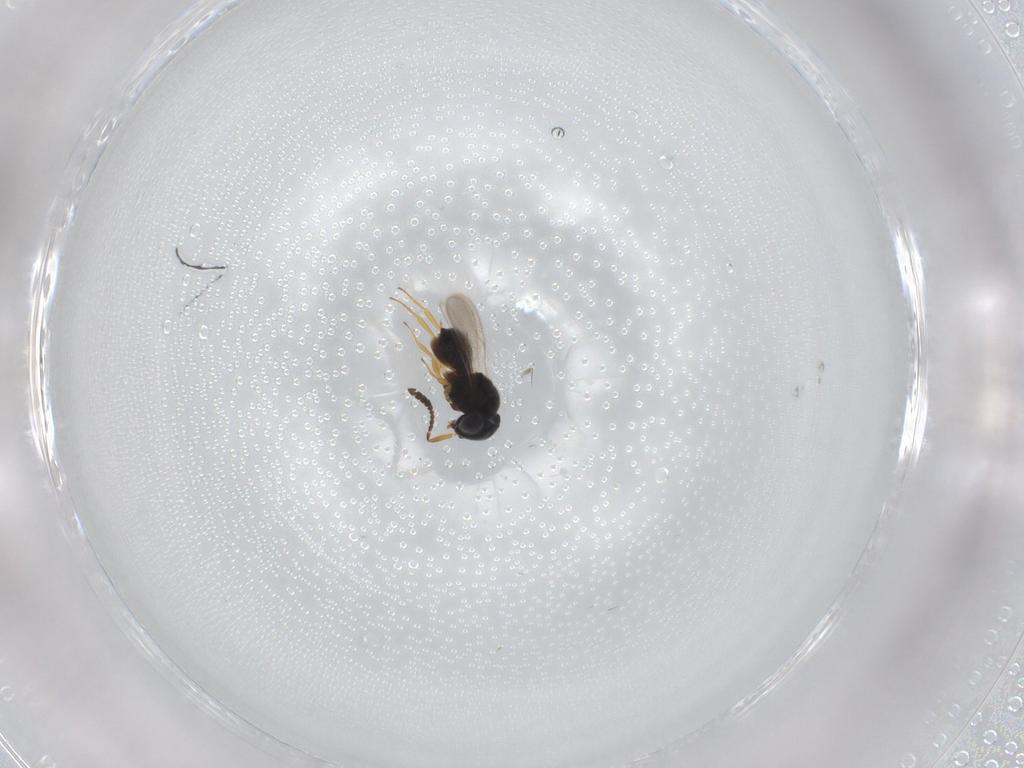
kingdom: Animalia
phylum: Arthropoda
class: Insecta
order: Hymenoptera
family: Scelionidae
